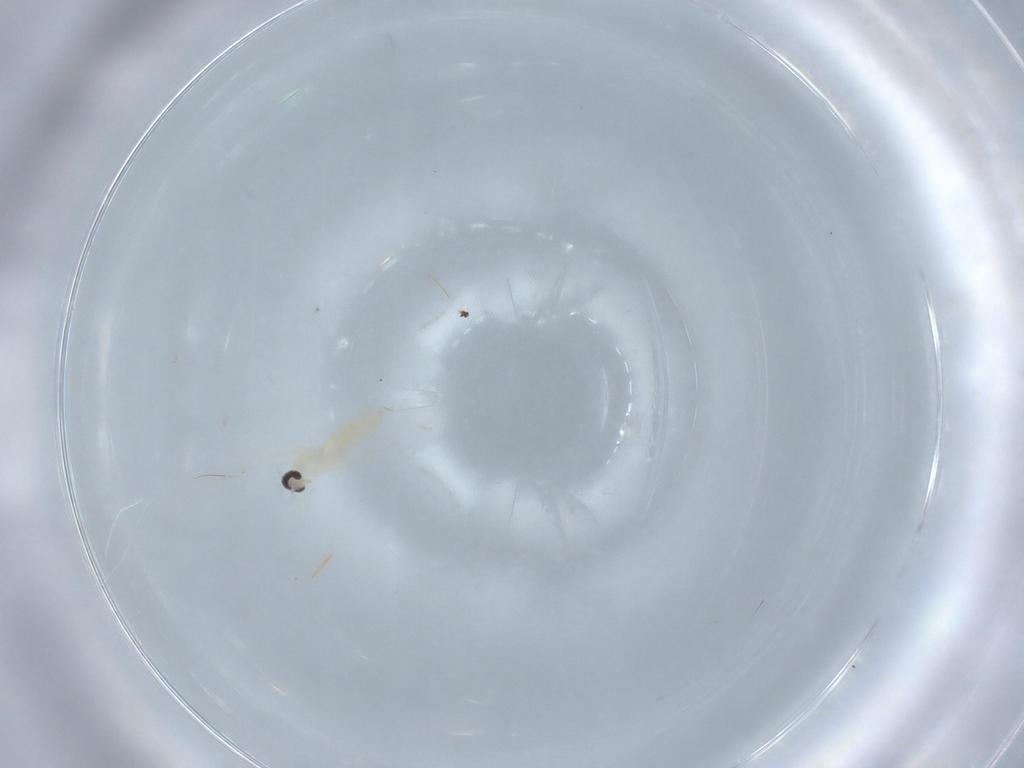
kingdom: Animalia
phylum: Arthropoda
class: Insecta
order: Diptera
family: Cecidomyiidae
